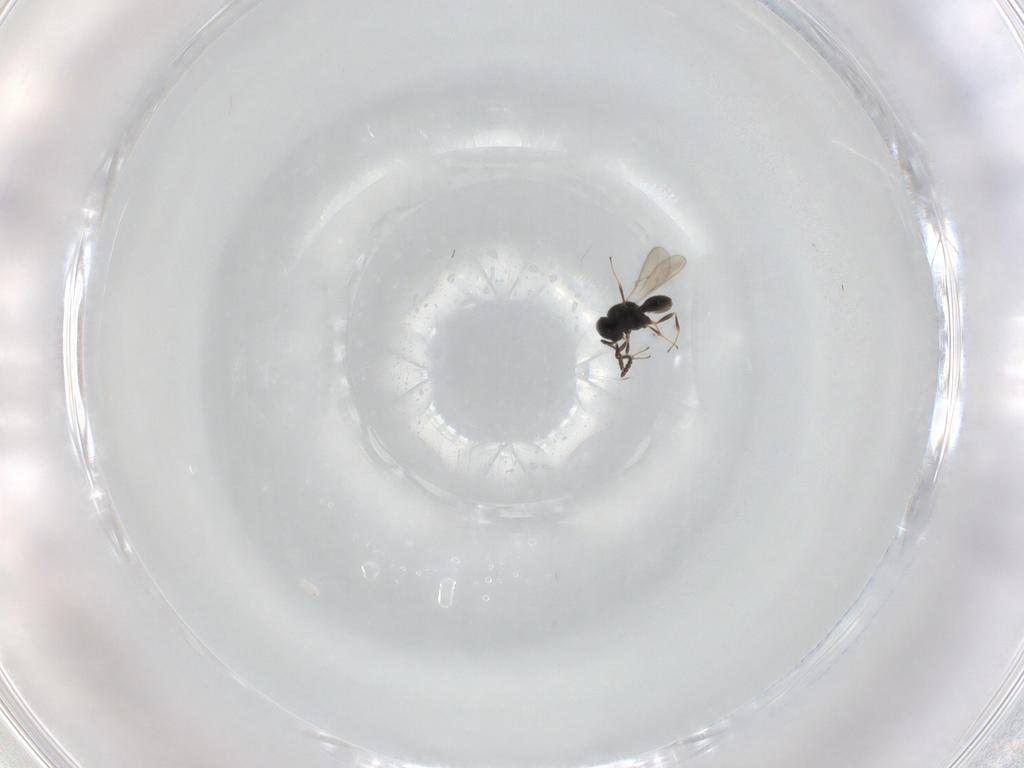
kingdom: Animalia
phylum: Arthropoda
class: Insecta
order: Hymenoptera
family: Scelionidae
